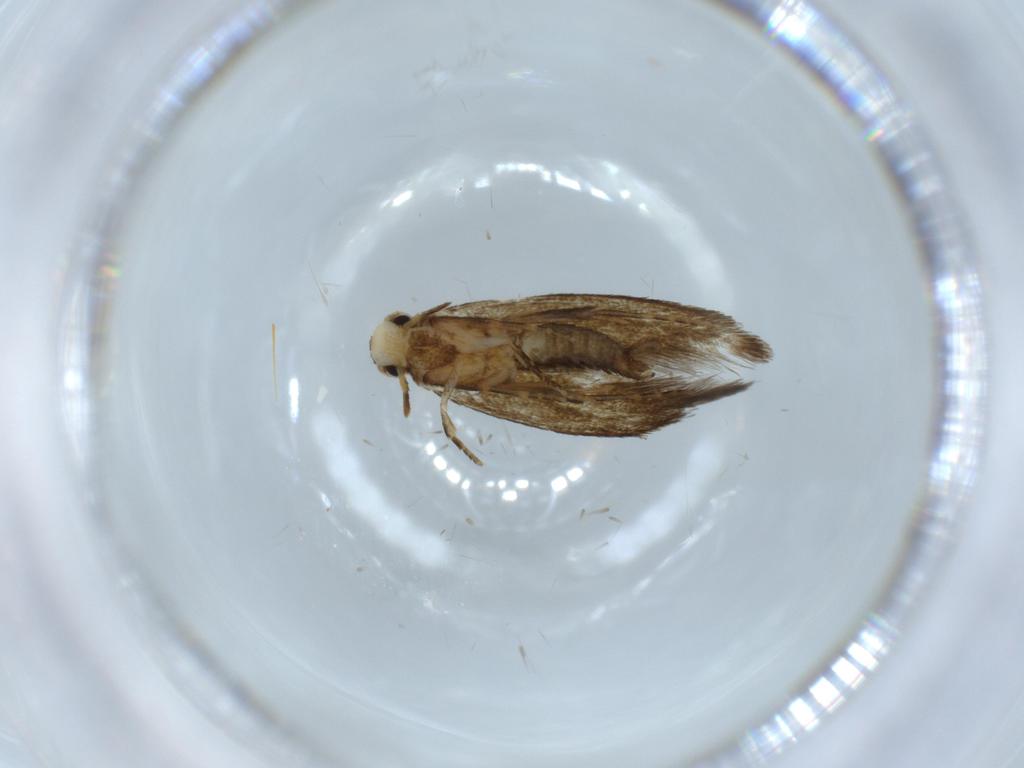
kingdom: Animalia
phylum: Arthropoda
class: Insecta
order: Lepidoptera
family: Tineidae
